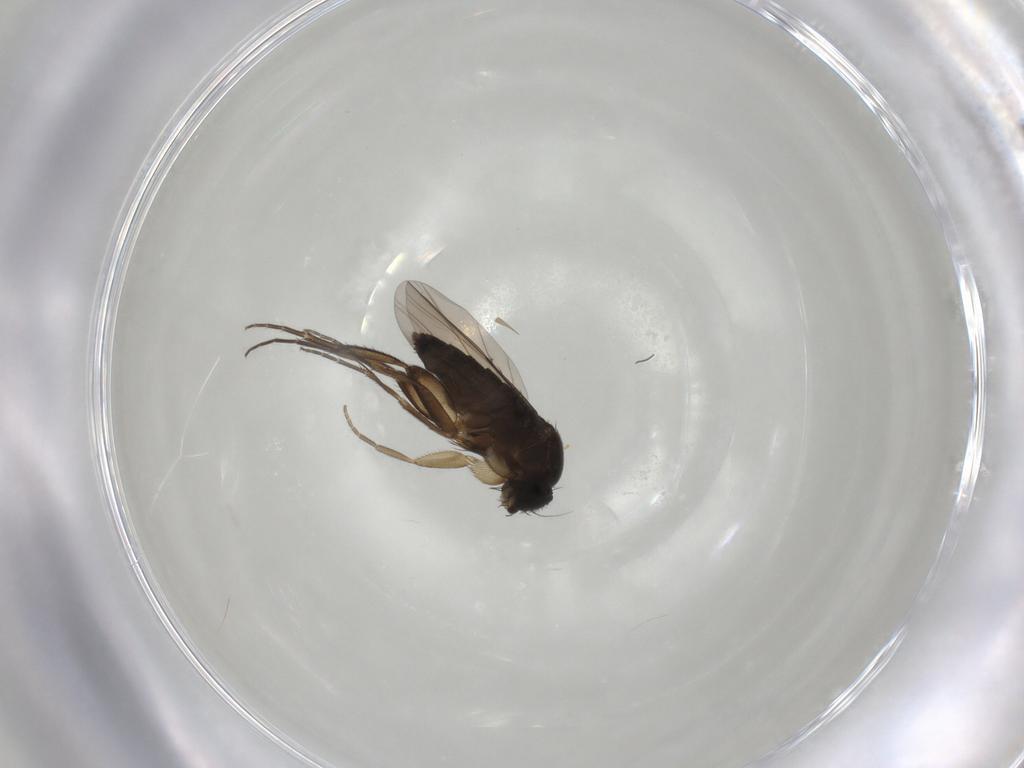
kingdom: Animalia
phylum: Arthropoda
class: Insecta
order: Diptera
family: Phoridae
